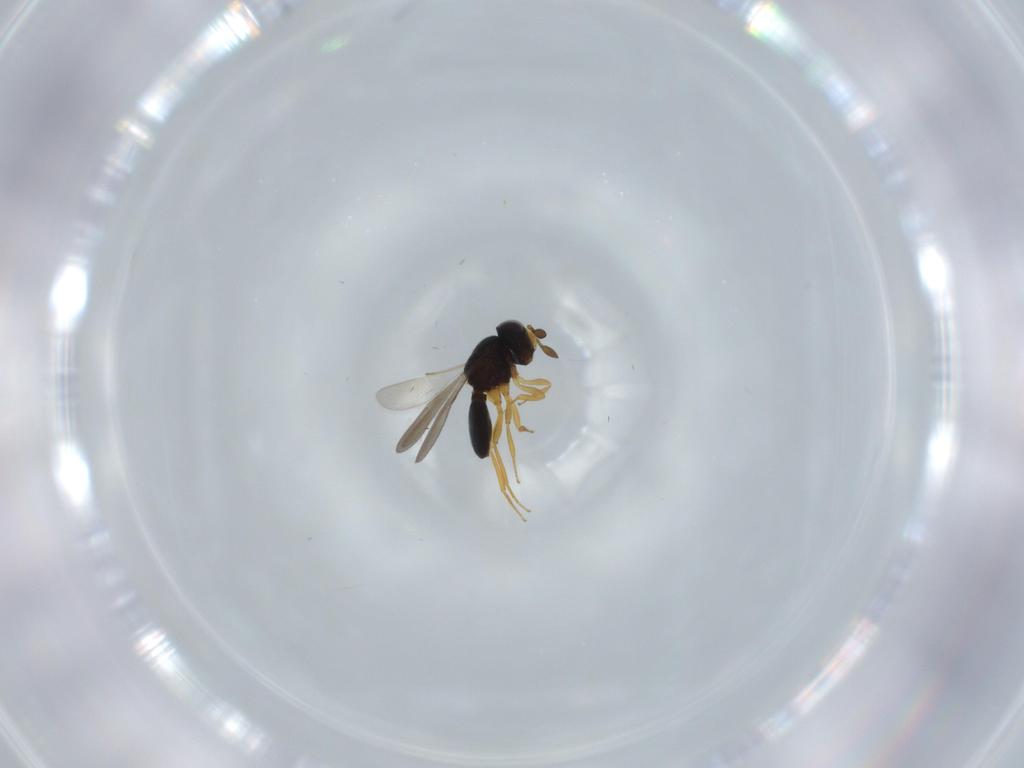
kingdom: Animalia
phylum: Arthropoda
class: Insecta
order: Hymenoptera
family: Scelionidae
